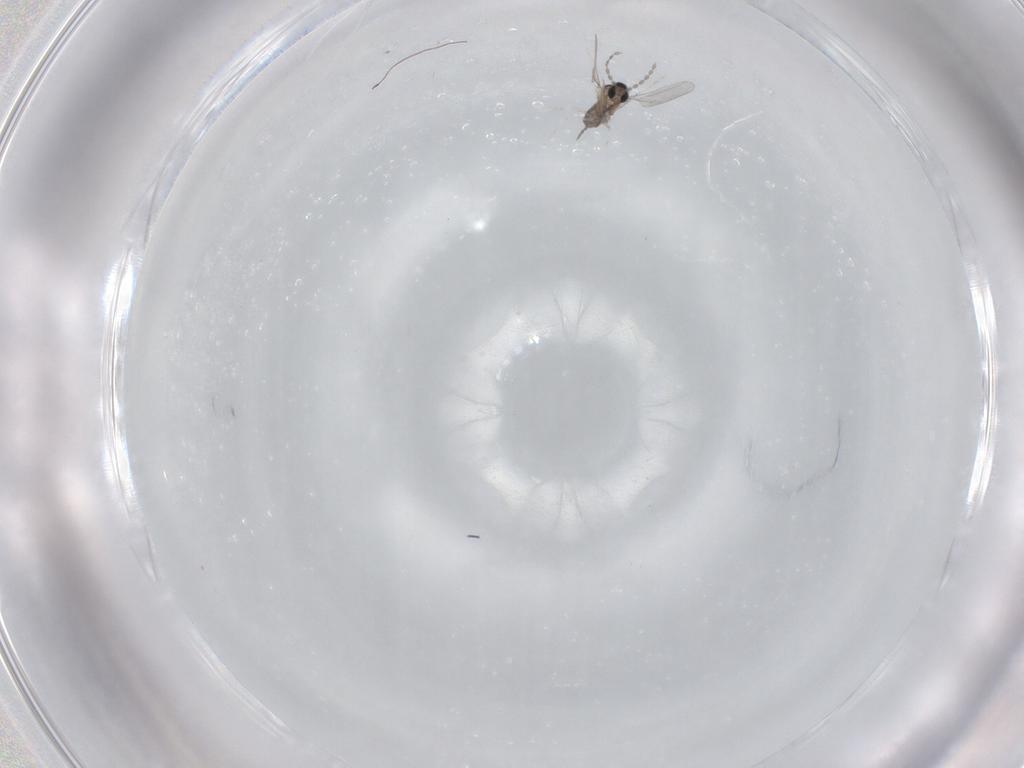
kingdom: Animalia
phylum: Arthropoda
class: Insecta
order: Diptera
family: Cecidomyiidae
